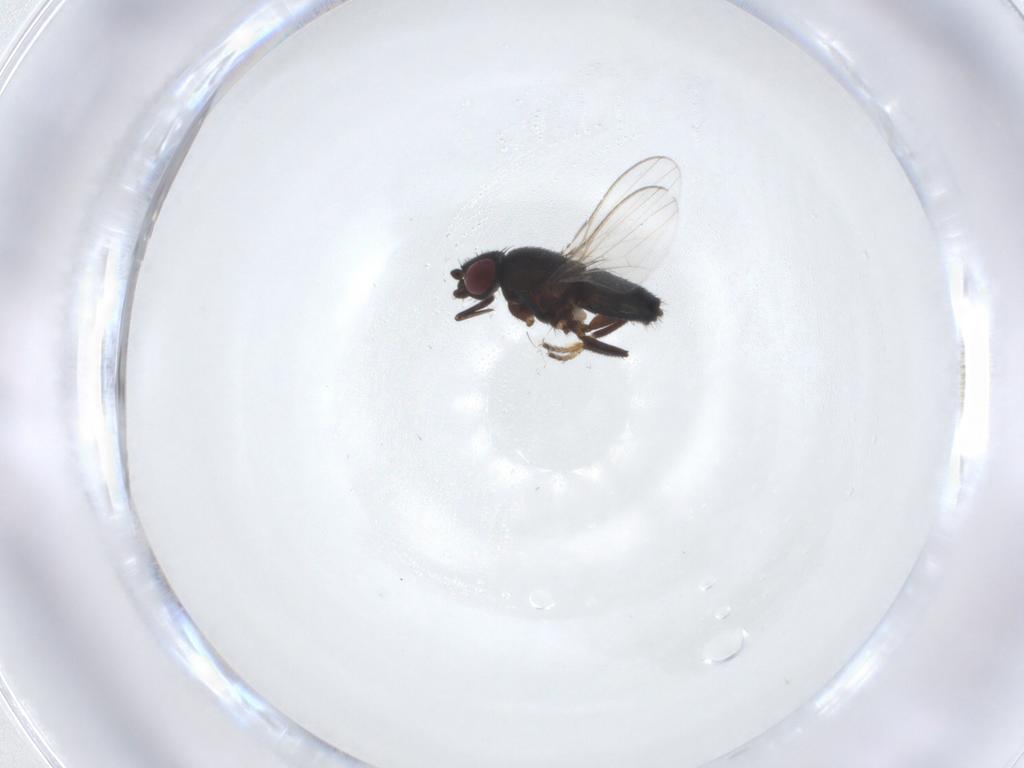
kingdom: Animalia
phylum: Arthropoda
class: Insecta
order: Diptera
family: Milichiidae
